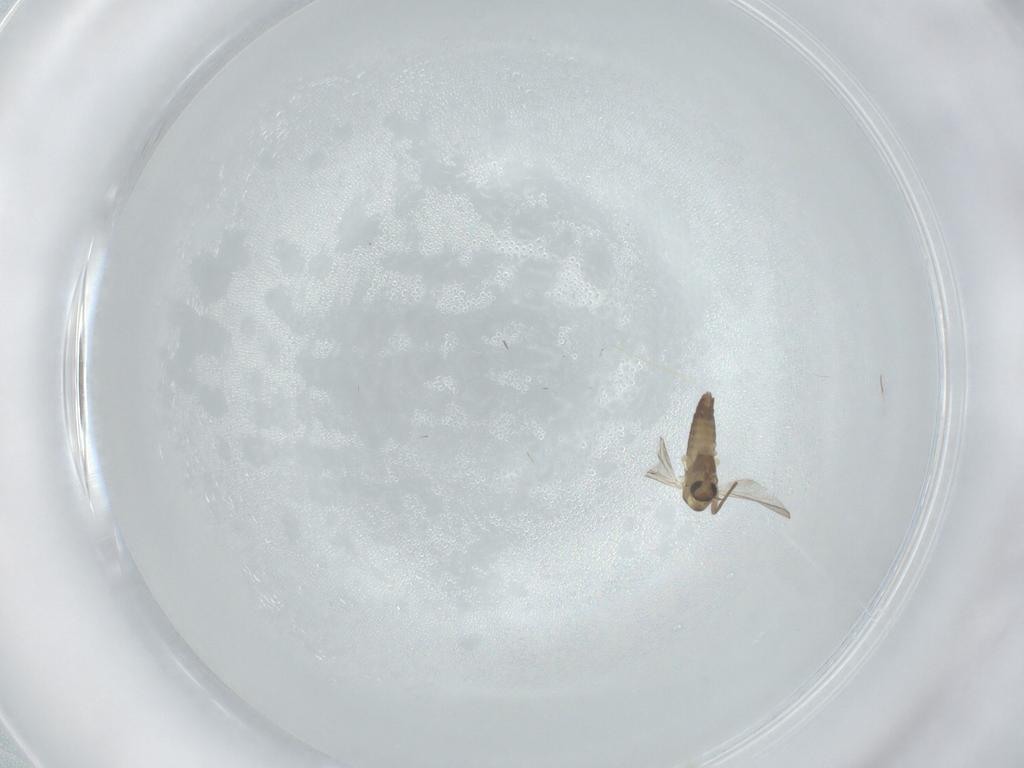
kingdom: Animalia
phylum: Arthropoda
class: Insecta
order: Diptera
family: Chironomidae
